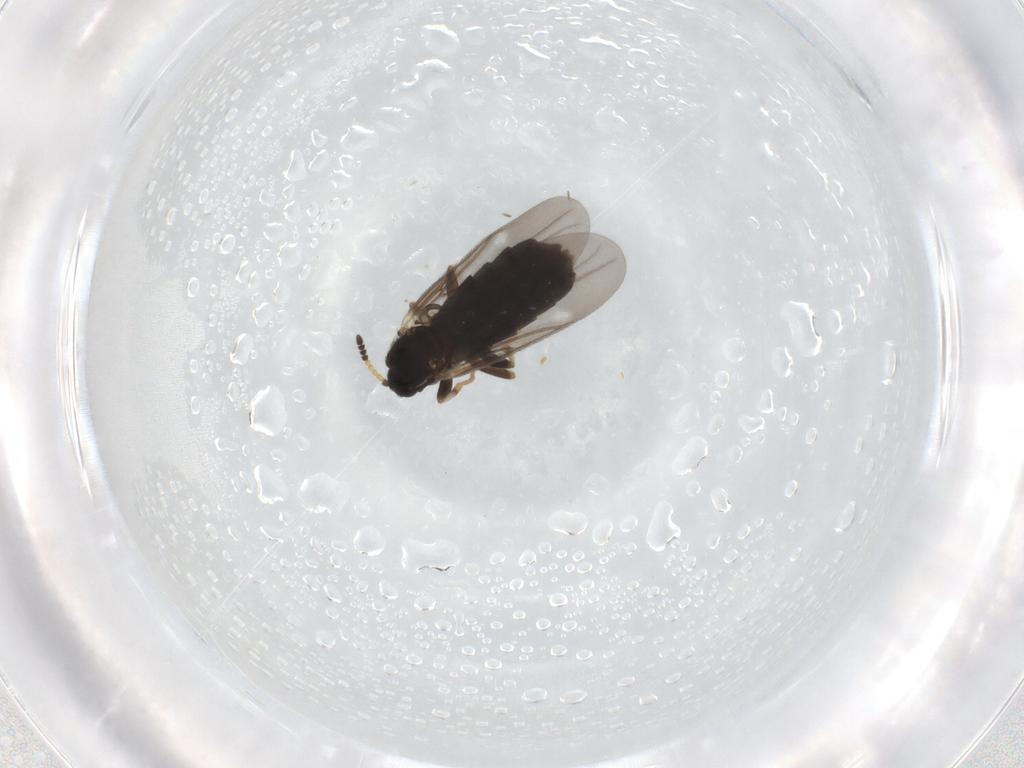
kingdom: Animalia
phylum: Arthropoda
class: Insecta
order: Diptera
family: Scatopsidae
